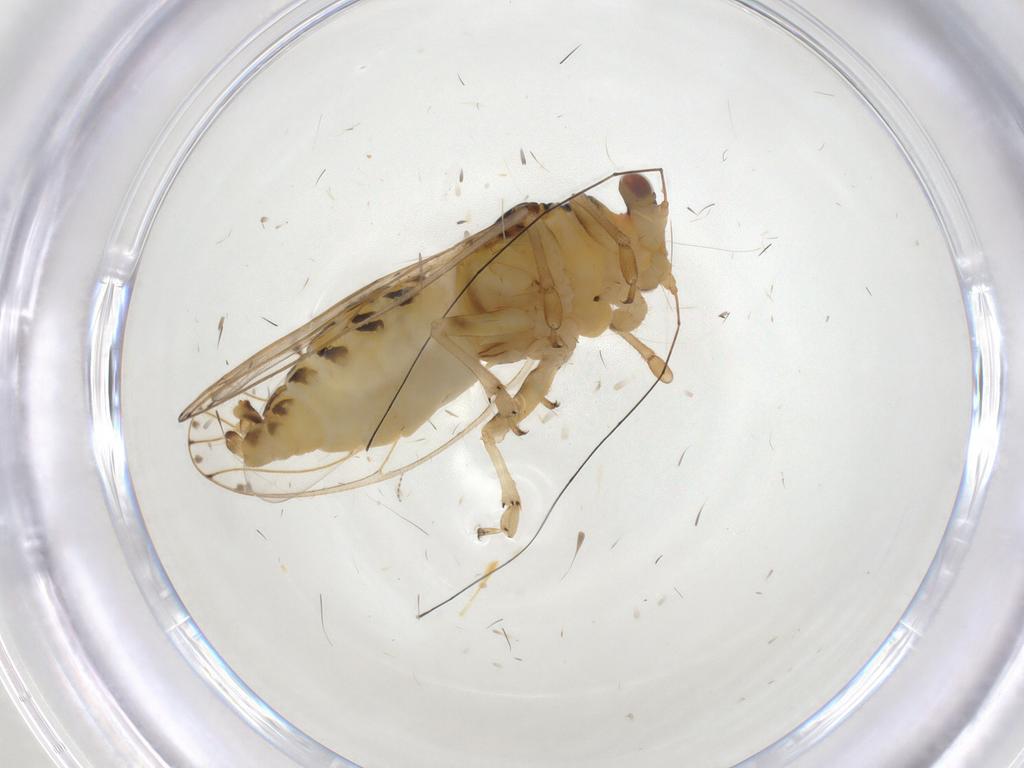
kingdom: Animalia
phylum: Arthropoda
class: Insecta
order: Hemiptera
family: Psylloidea_incertae_sedis
